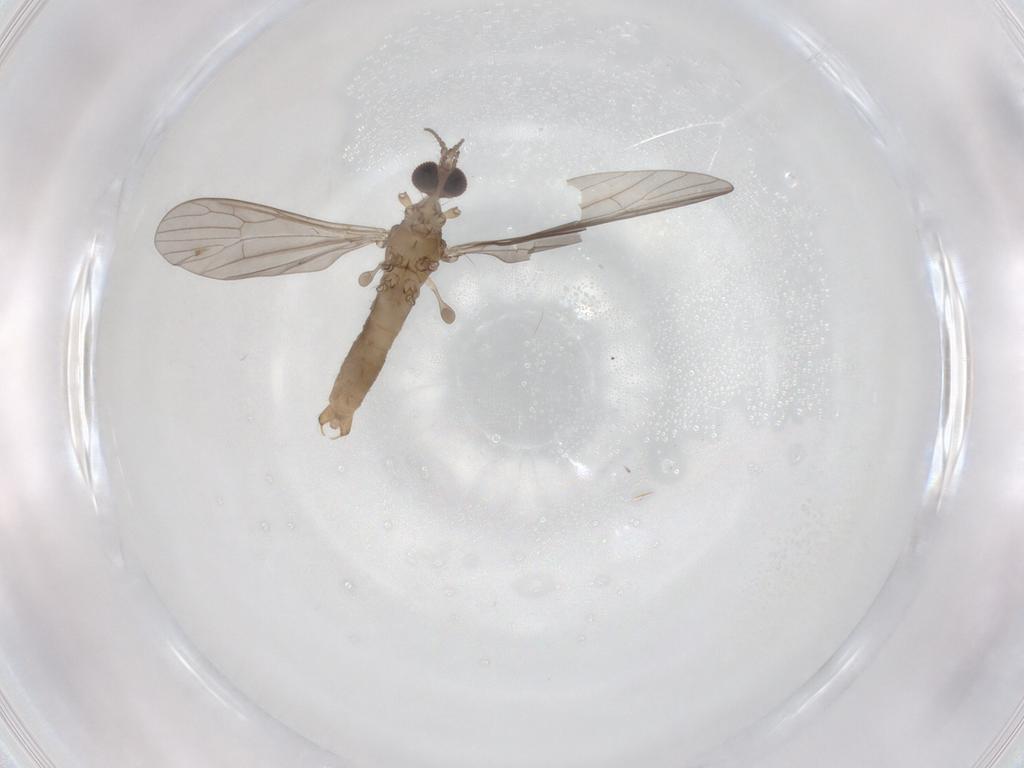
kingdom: Animalia
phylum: Arthropoda
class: Insecta
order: Diptera
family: Limoniidae
